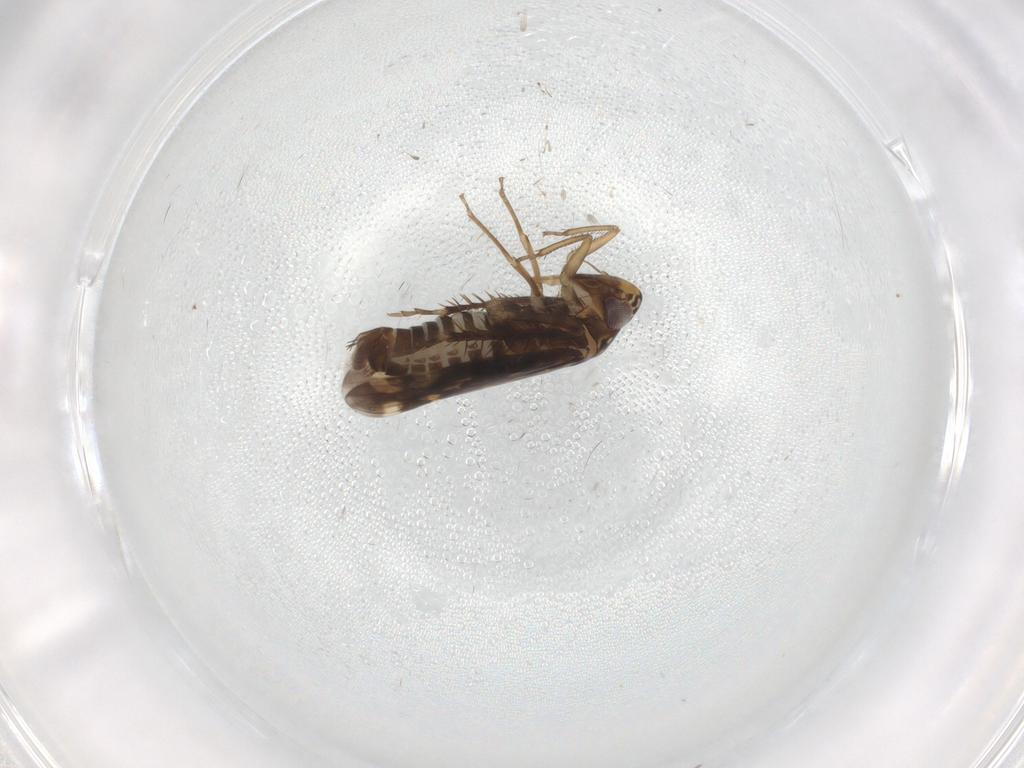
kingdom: Animalia
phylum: Arthropoda
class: Insecta
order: Hemiptera
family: Cicadellidae
